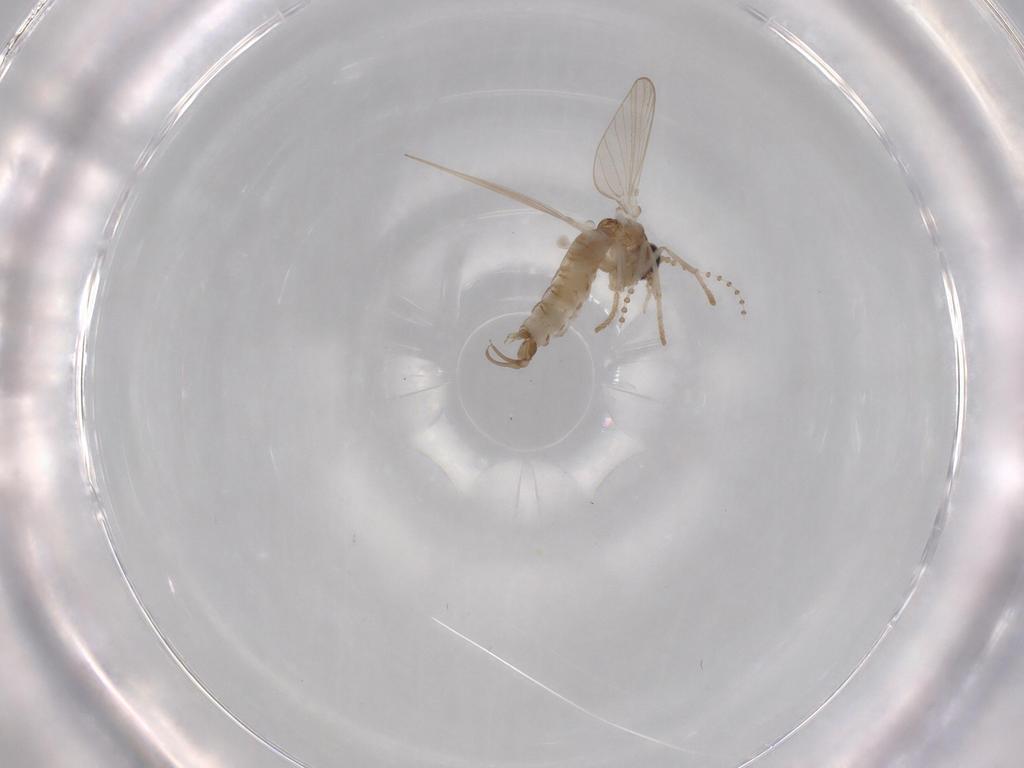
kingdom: Animalia
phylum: Arthropoda
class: Insecta
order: Diptera
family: Psychodidae
